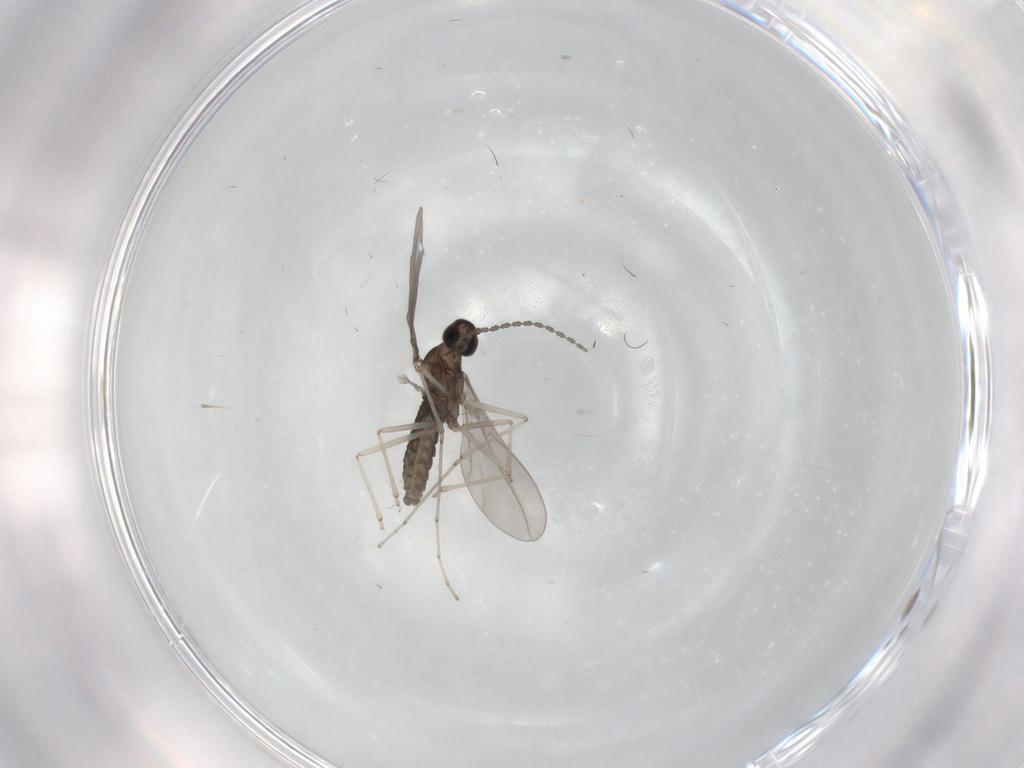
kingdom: Animalia
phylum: Arthropoda
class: Insecta
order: Diptera
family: Cecidomyiidae
